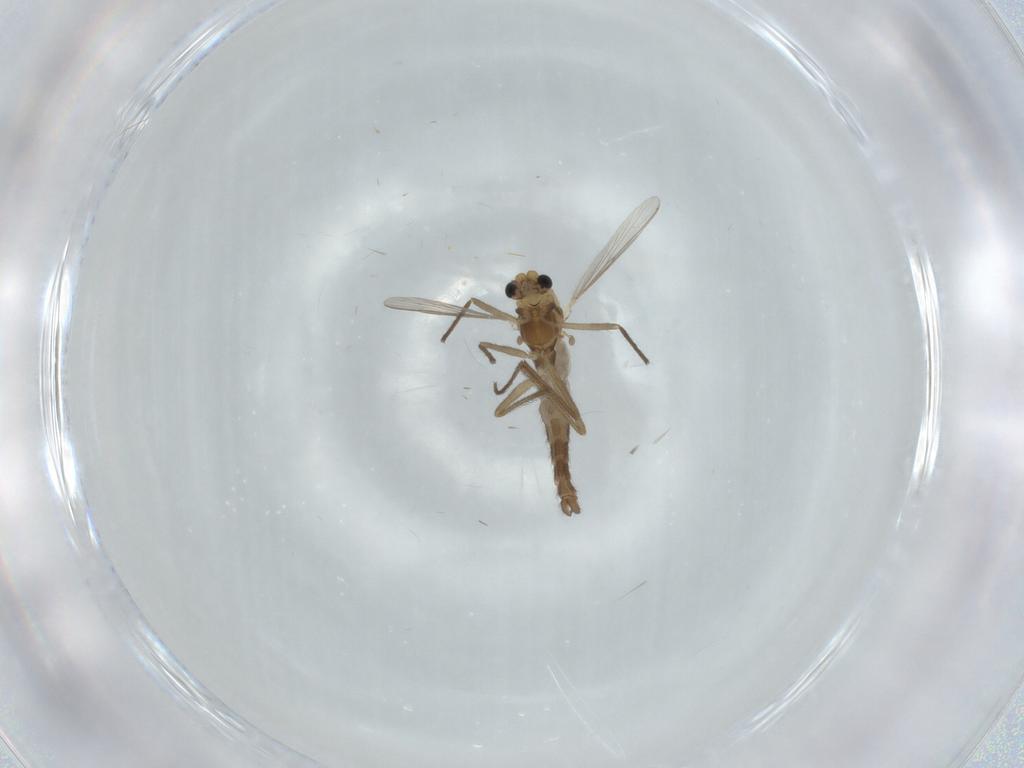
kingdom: Animalia
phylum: Arthropoda
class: Insecta
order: Diptera
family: Chironomidae
